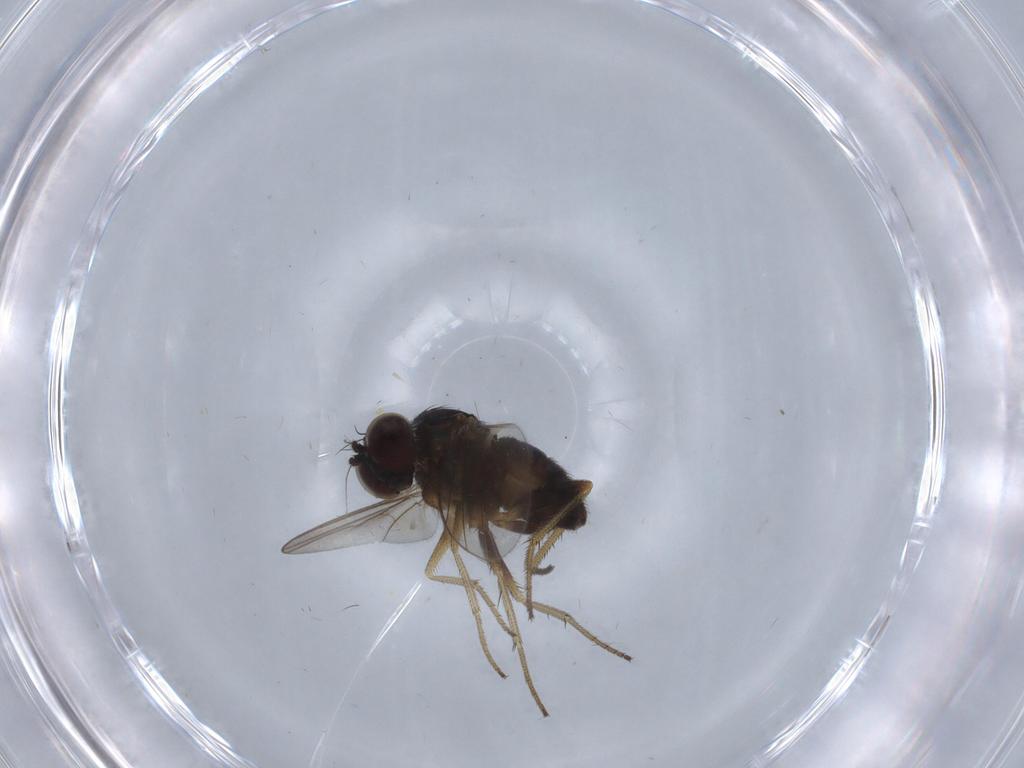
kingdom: Animalia
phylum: Arthropoda
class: Insecta
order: Diptera
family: Dolichopodidae
